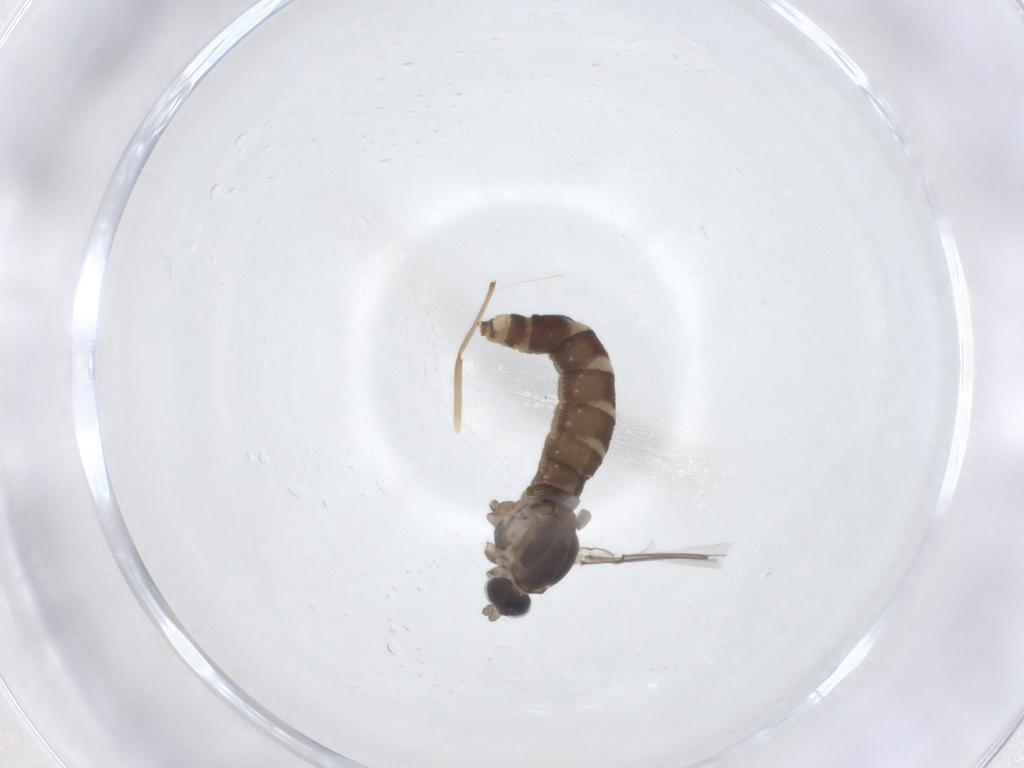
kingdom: Animalia
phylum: Arthropoda
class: Insecta
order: Diptera
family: Chironomidae
